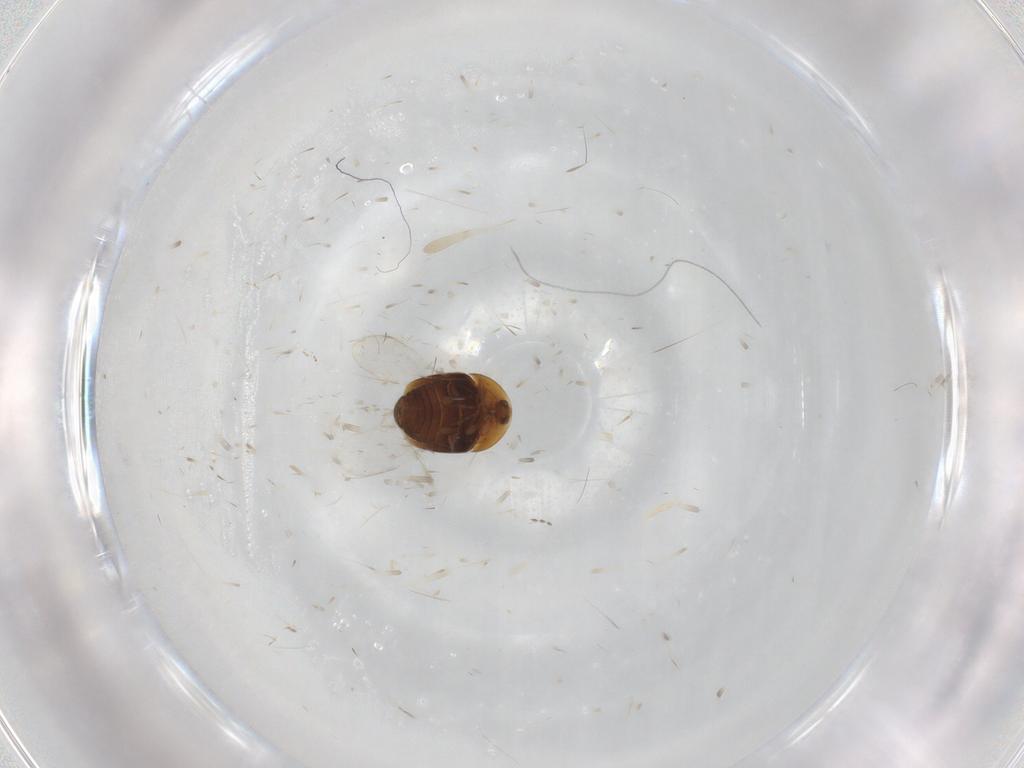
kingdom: Animalia
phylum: Arthropoda
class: Insecta
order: Coleoptera
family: Corylophidae
